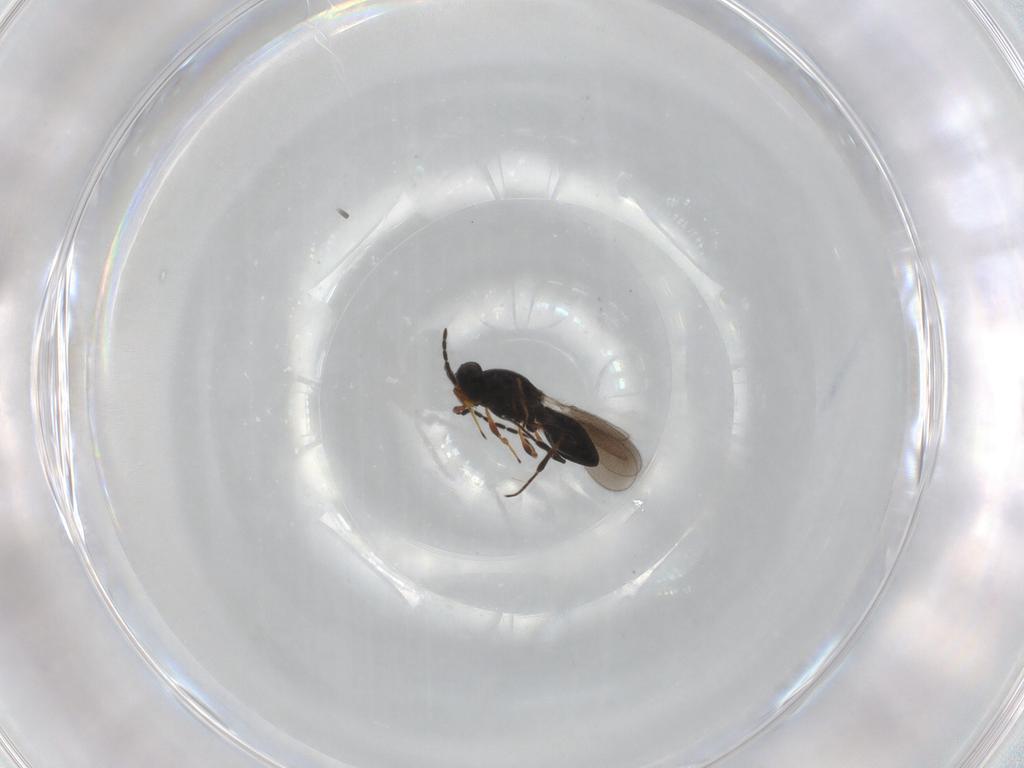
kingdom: Animalia
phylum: Arthropoda
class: Insecta
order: Hymenoptera
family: Platygastridae
